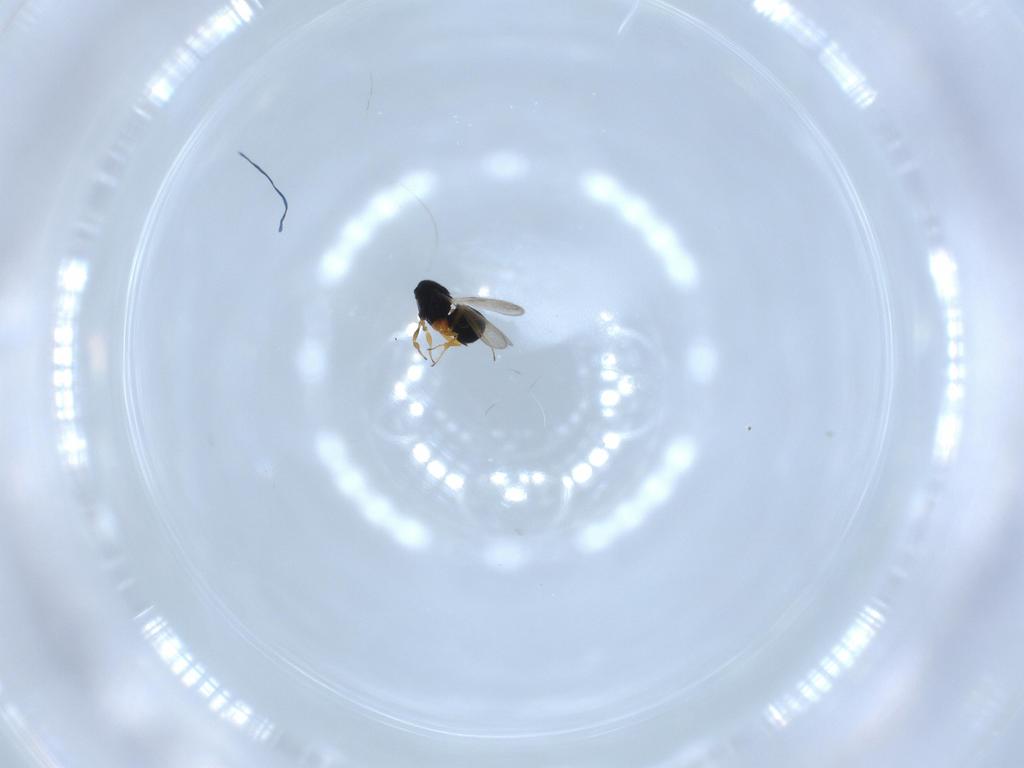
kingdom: Animalia
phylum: Arthropoda
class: Insecta
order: Hymenoptera
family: Scelionidae
